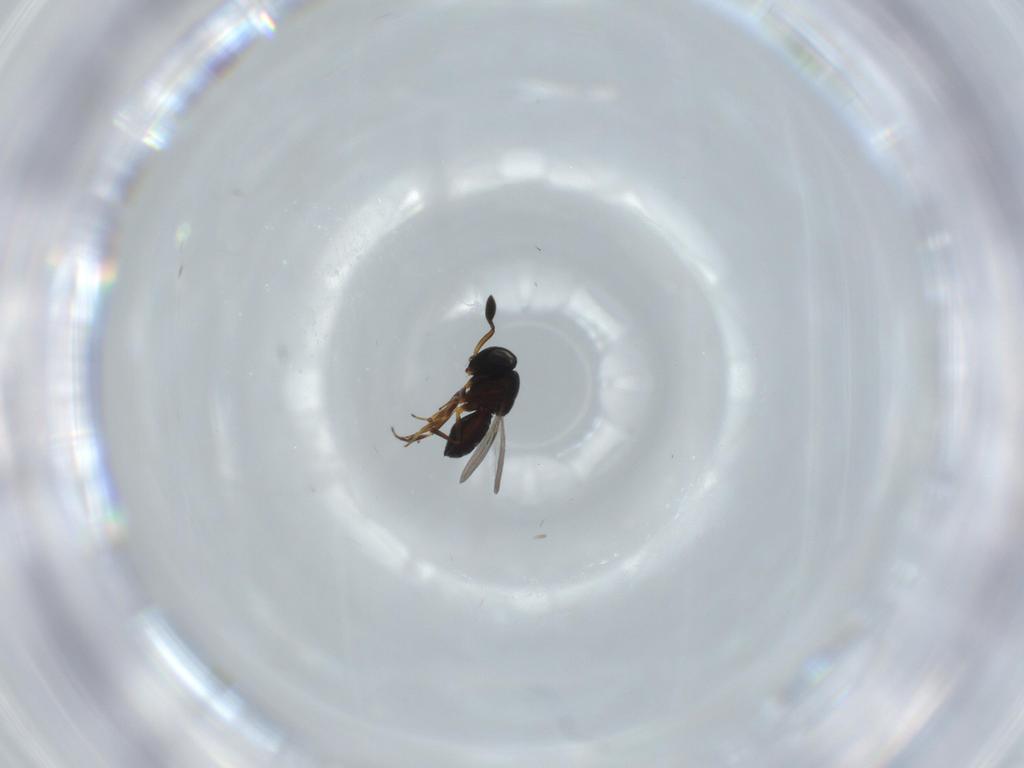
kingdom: Animalia
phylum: Arthropoda
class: Insecta
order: Hymenoptera
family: Scelionidae
